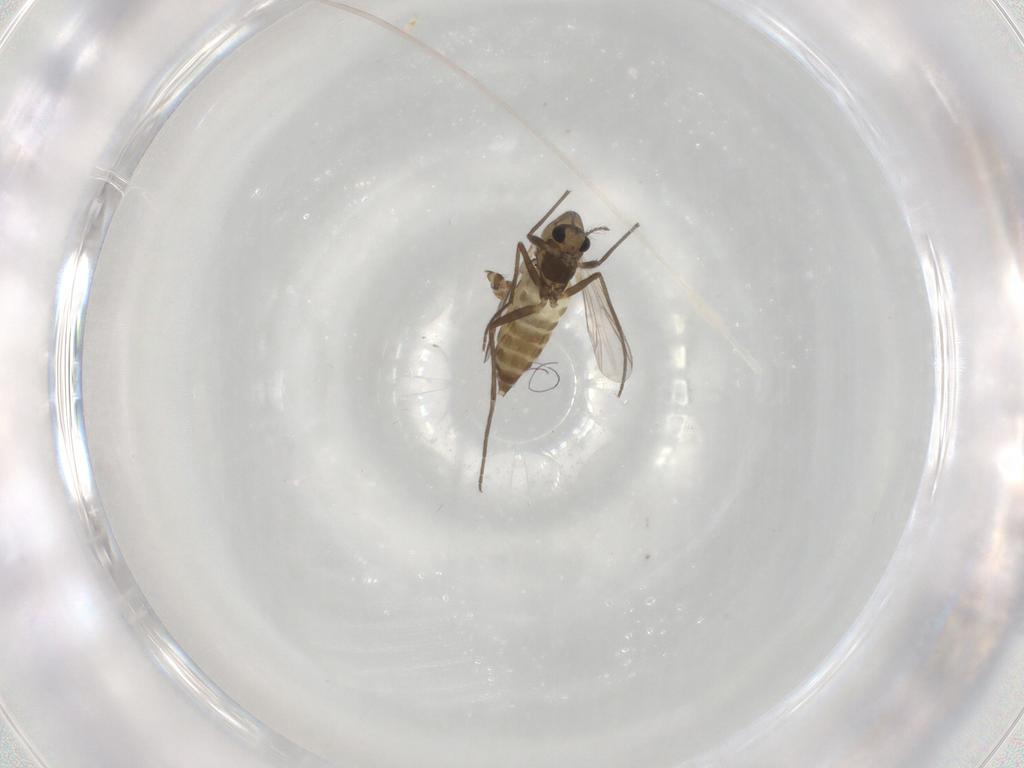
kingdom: Animalia
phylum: Arthropoda
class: Insecta
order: Diptera
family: Chironomidae
